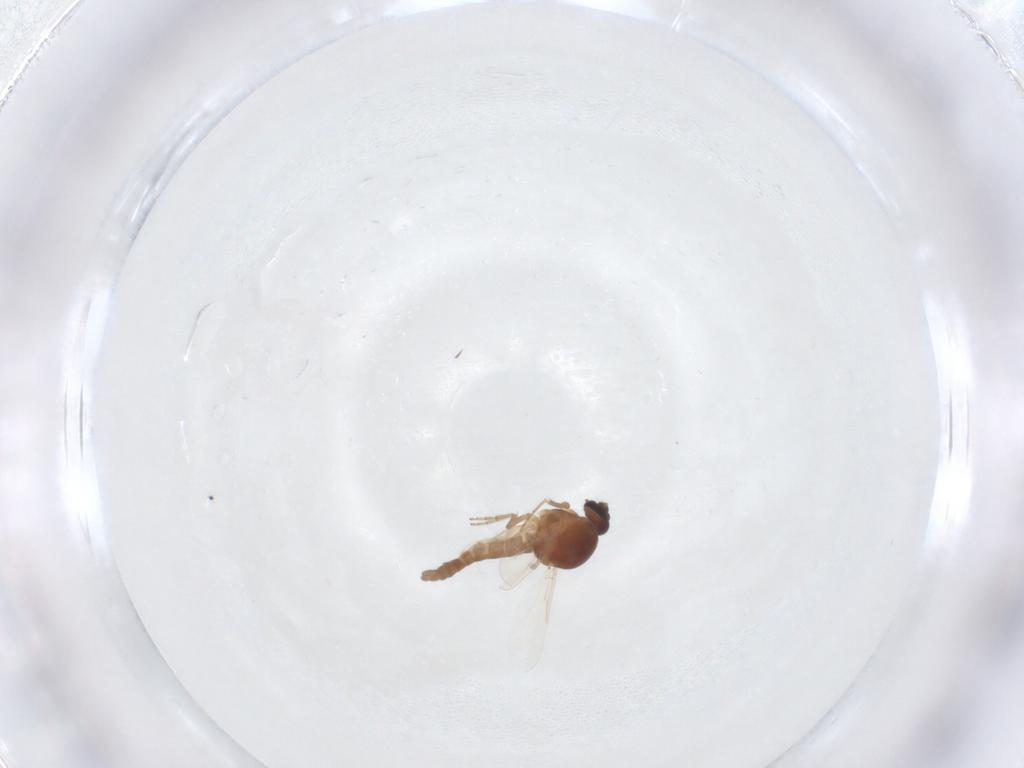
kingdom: Animalia
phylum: Arthropoda
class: Insecta
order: Diptera
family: Ceratopogonidae
